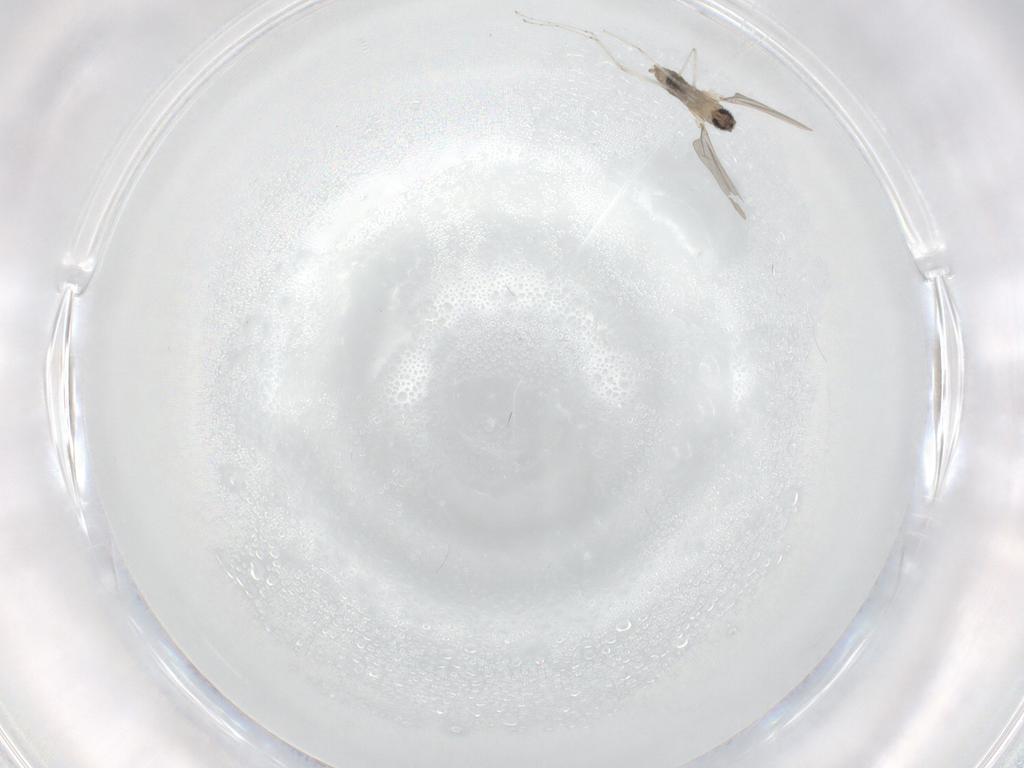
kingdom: Animalia
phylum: Arthropoda
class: Insecta
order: Diptera
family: Cecidomyiidae
